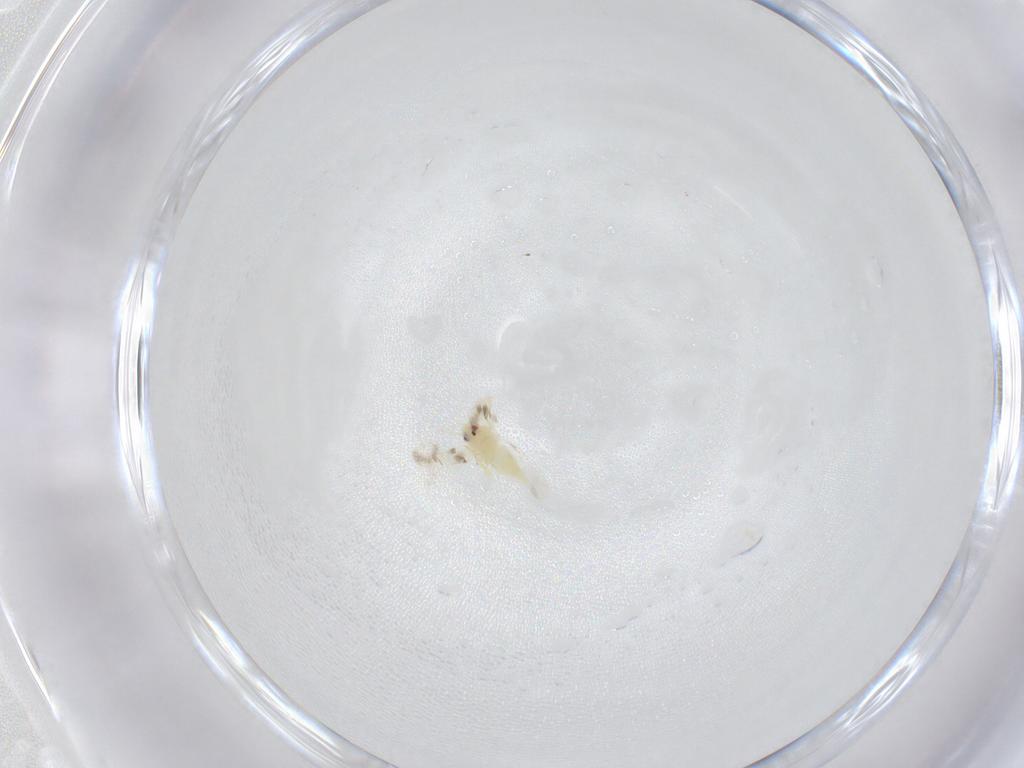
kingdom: Animalia
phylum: Arthropoda
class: Insecta
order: Hemiptera
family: Aleyrodidae
